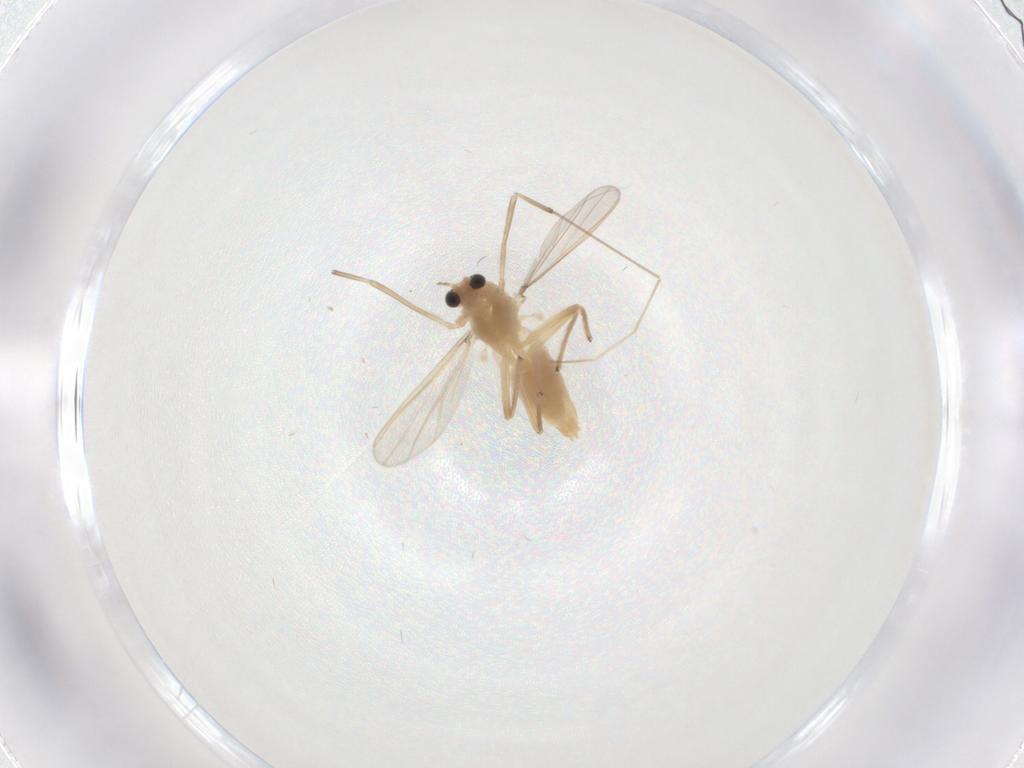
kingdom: Animalia
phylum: Arthropoda
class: Insecta
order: Diptera
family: Chironomidae
